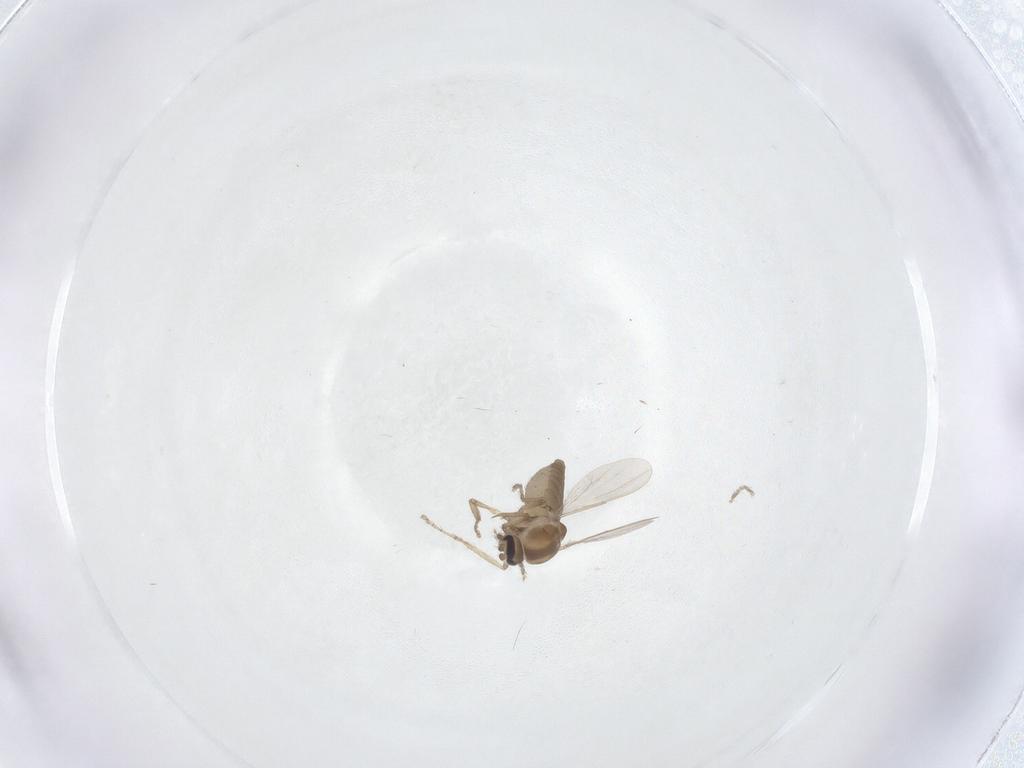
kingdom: Animalia
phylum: Arthropoda
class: Insecta
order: Diptera
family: Ceratopogonidae
